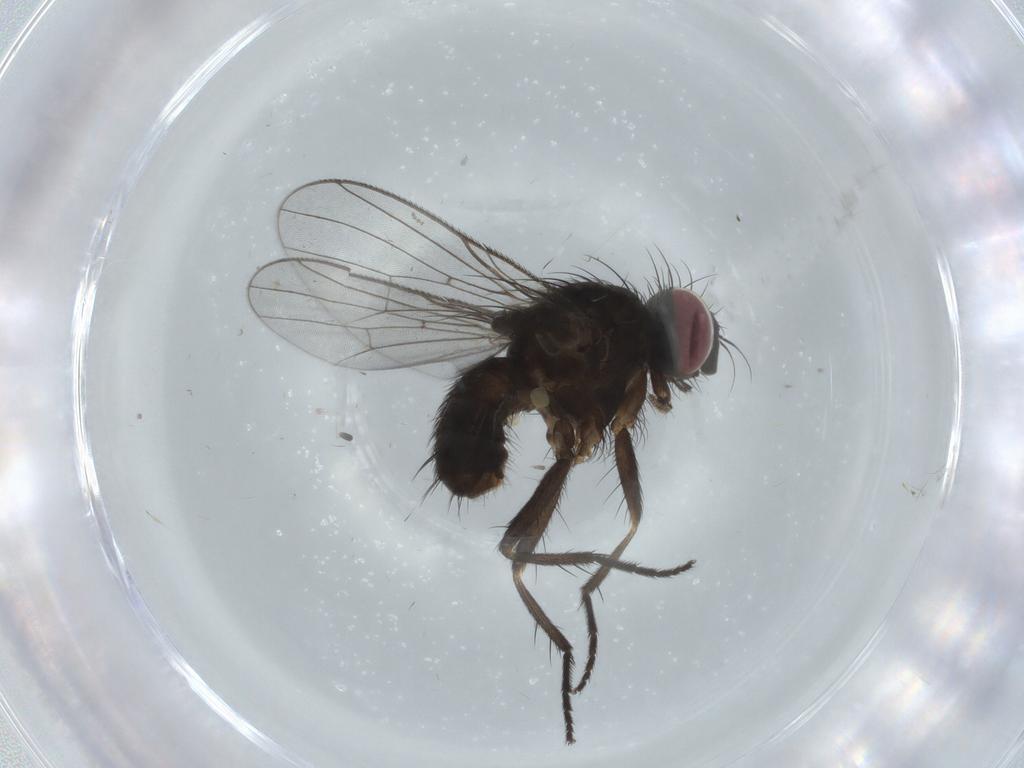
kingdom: Animalia
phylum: Arthropoda
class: Insecta
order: Diptera
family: Muscidae
